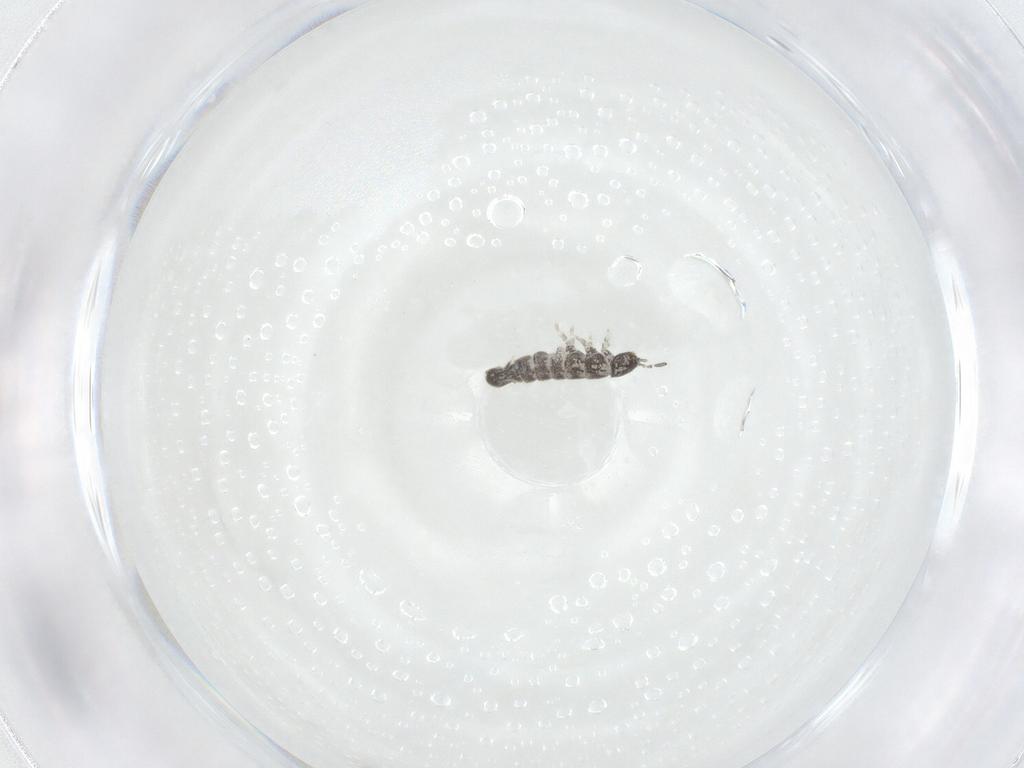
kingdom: Animalia
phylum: Arthropoda
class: Collembola
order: Entomobryomorpha
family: Isotomidae
